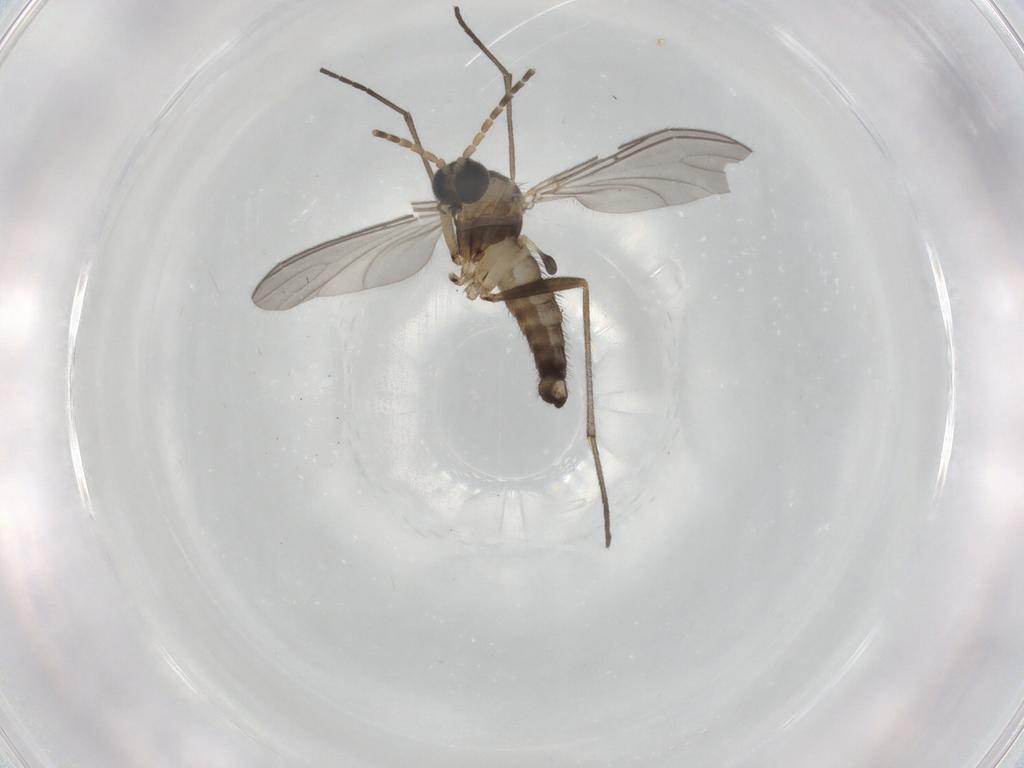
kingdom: Animalia
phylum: Arthropoda
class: Insecta
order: Diptera
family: Sciaridae
